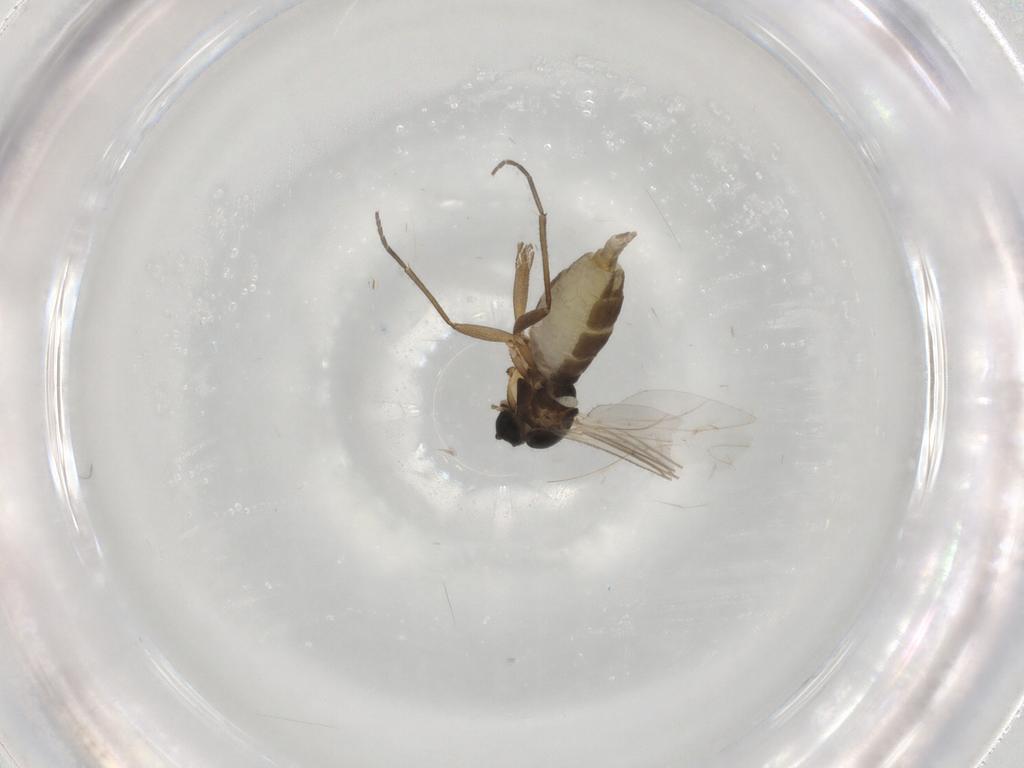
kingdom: Animalia
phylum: Arthropoda
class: Insecta
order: Diptera
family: Sciaridae
